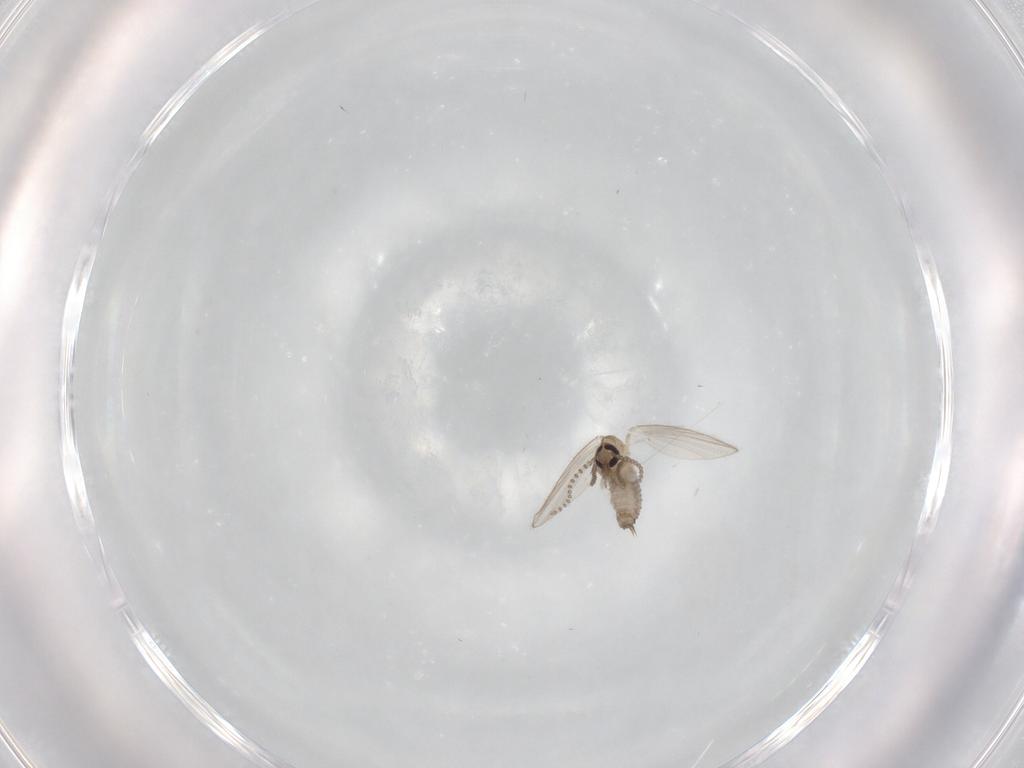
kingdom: Animalia
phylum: Arthropoda
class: Insecta
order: Diptera
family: Psychodidae
